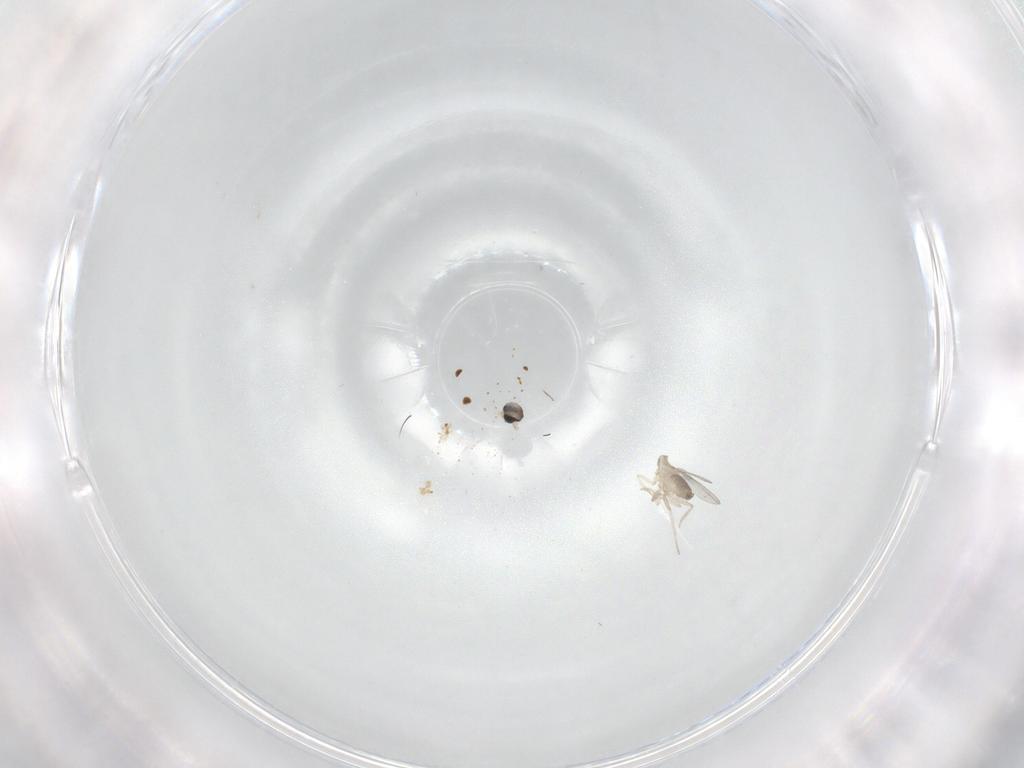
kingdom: Animalia
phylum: Arthropoda
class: Insecta
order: Diptera
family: Cecidomyiidae
